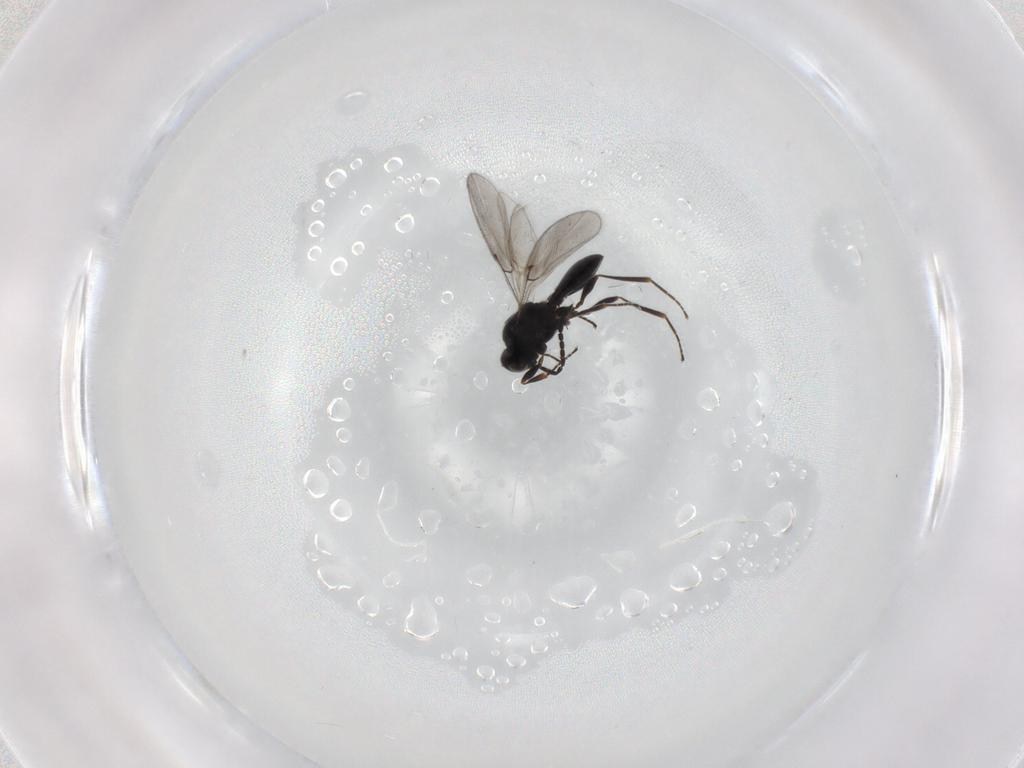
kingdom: Animalia
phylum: Arthropoda
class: Insecta
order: Hymenoptera
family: Platygastridae
